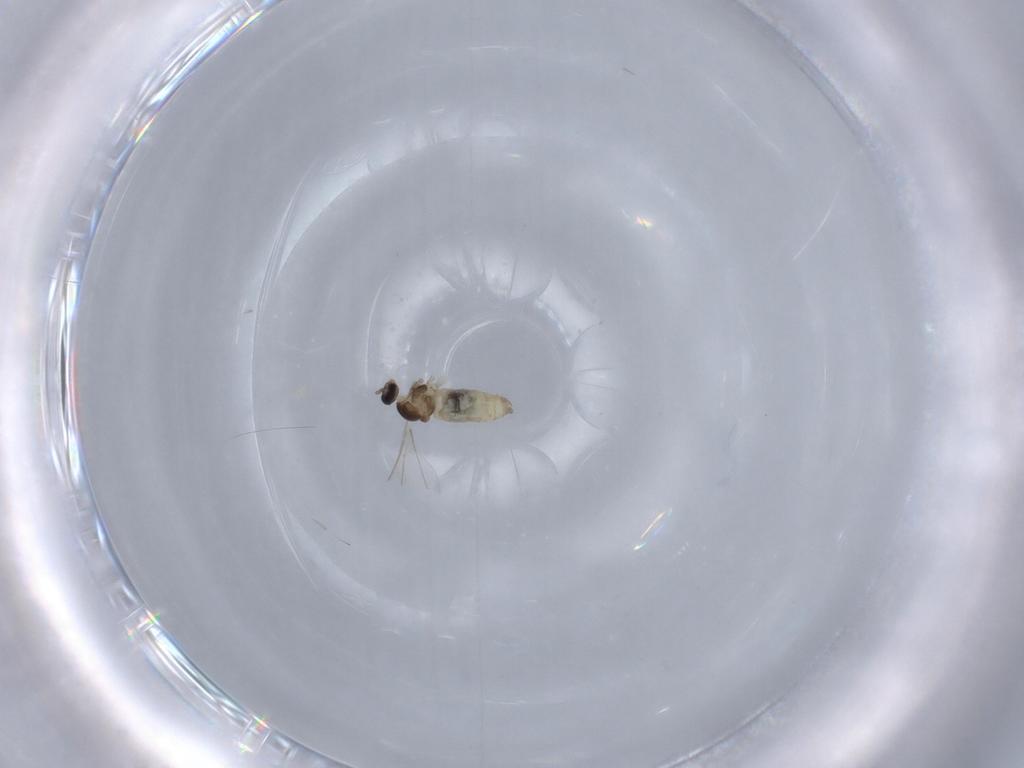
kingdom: Animalia
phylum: Arthropoda
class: Insecta
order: Diptera
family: Cecidomyiidae
